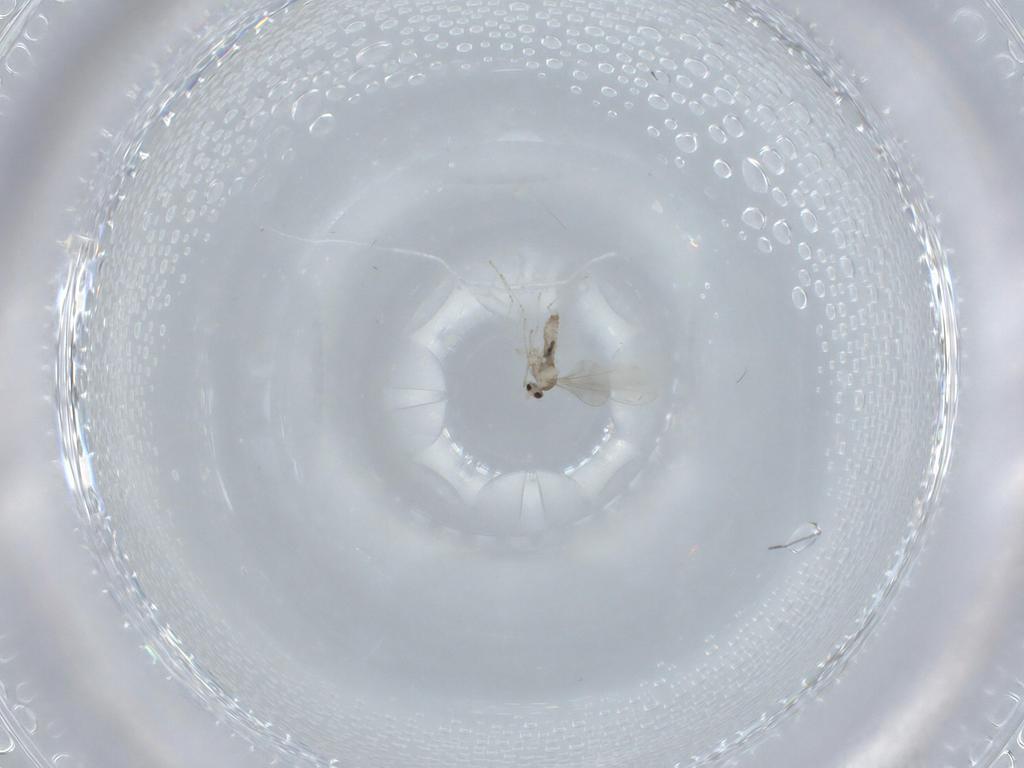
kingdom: Animalia
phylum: Arthropoda
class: Insecta
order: Diptera
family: Cecidomyiidae
